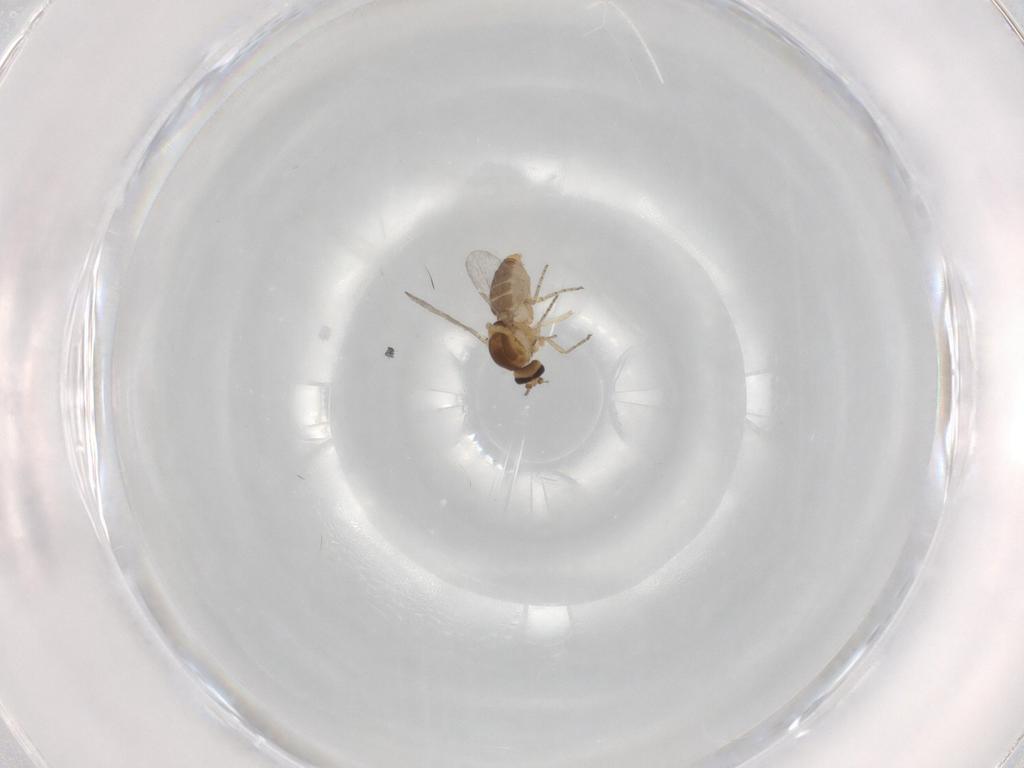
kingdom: Animalia
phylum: Arthropoda
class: Insecta
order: Diptera
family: Ceratopogonidae
